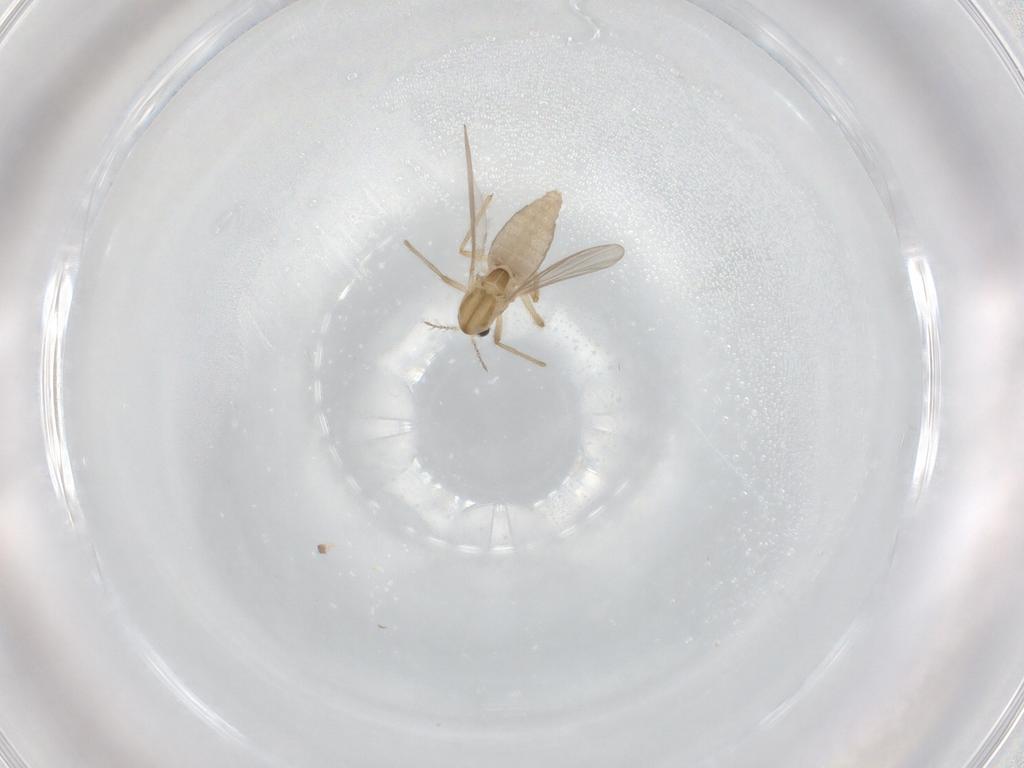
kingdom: Animalia
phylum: Arthropoda
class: Insecta
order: Diptera
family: Chironomidae
